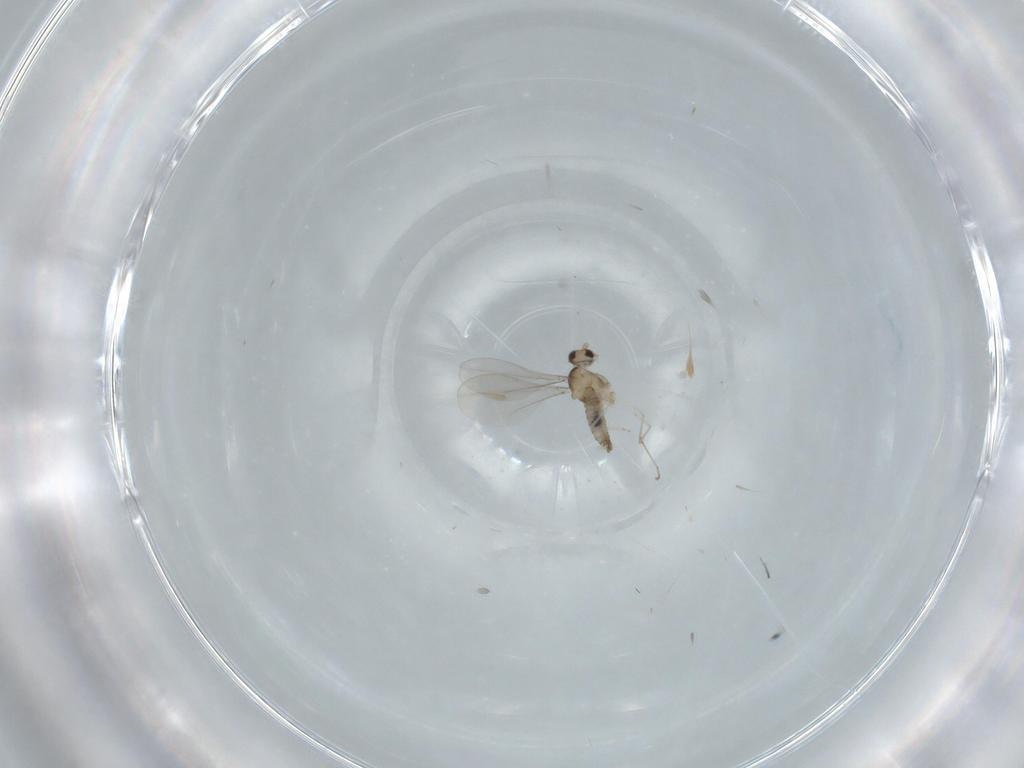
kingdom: Animalia
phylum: Arthropoda
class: Insecta
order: Diptera
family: Cecidomyiidae
